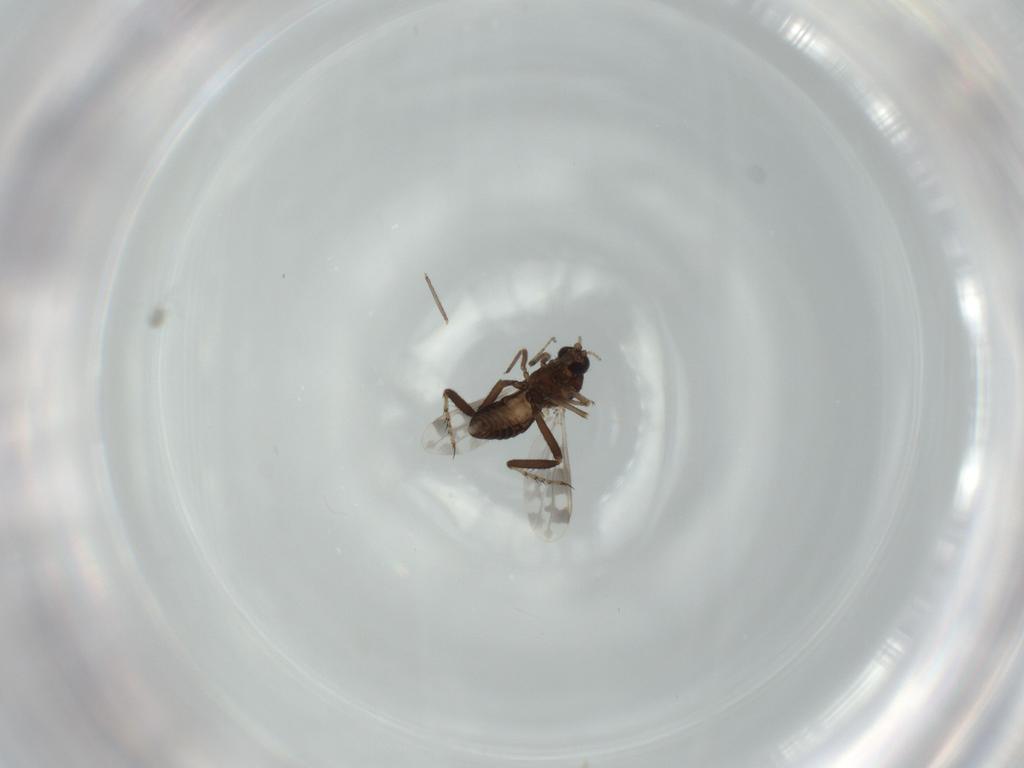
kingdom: Animalia
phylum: Arthropoda
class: Insecta
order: Diptera
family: Ceratopogonidae
